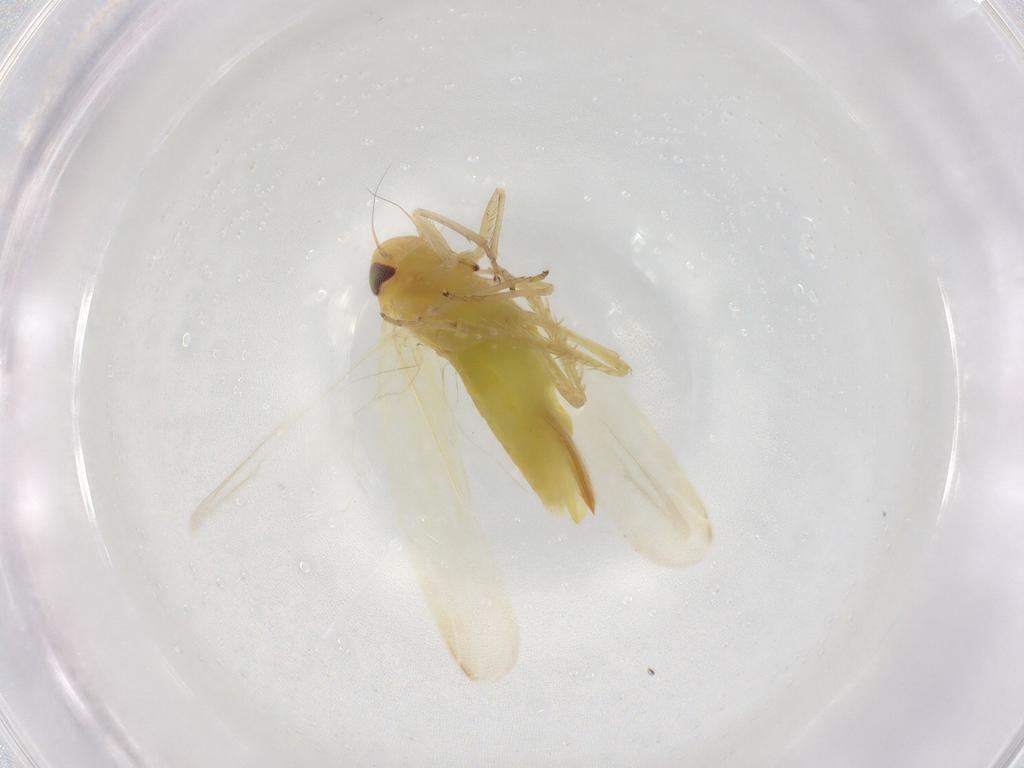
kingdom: Animalia
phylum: Arthropoda
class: Insecta
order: Hemiptera
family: Cicadellidae
